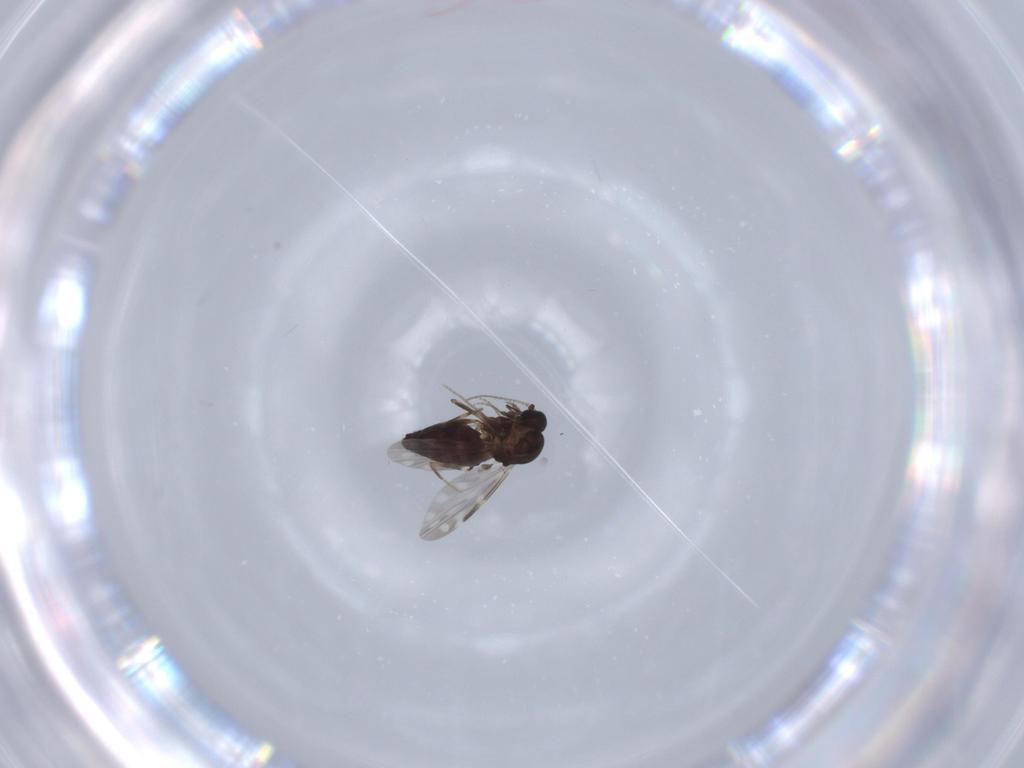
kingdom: Animalia
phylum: Arthropoda
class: Insecta
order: Diptera
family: Ceratopogonidae
